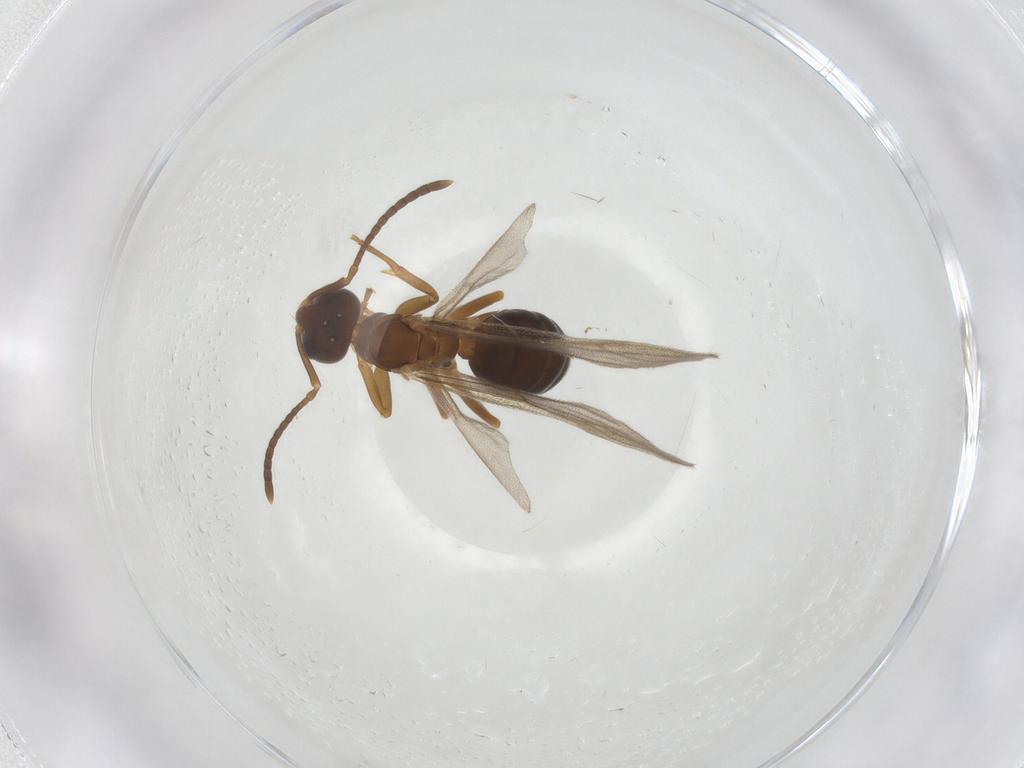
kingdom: Animalia
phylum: Arthropoda
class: Insecta
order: Hymenoptera
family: Formicidae
